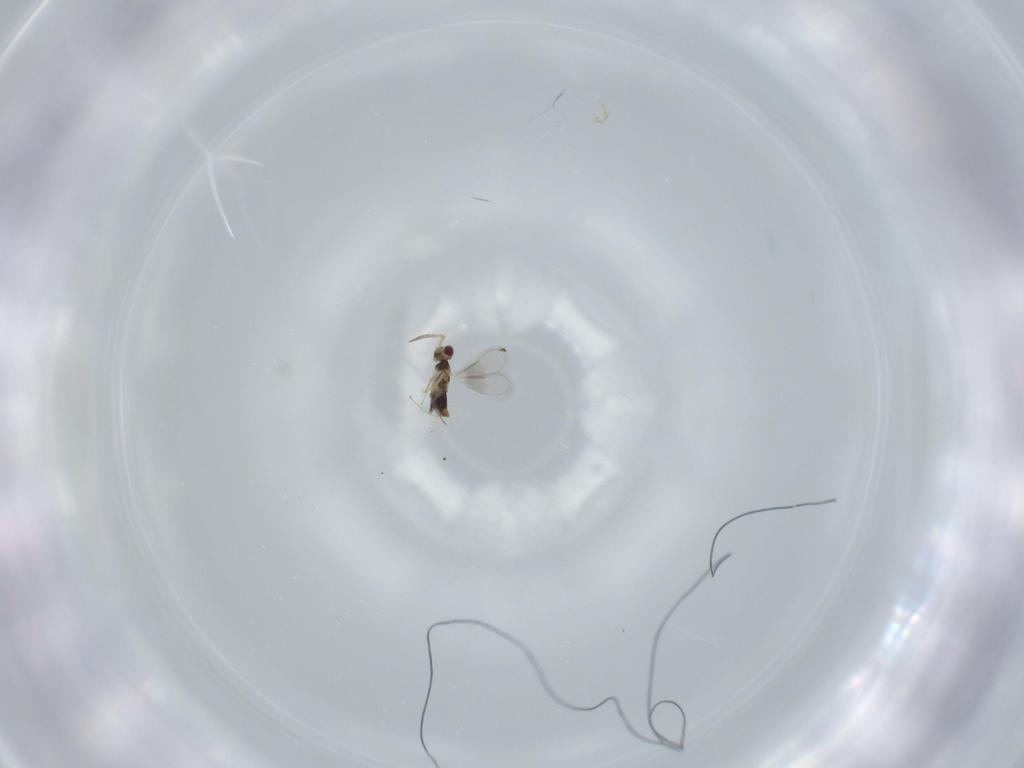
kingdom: Animalia
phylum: Arthropoda
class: Insecta
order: Hymenoptera
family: Aphelinidae
